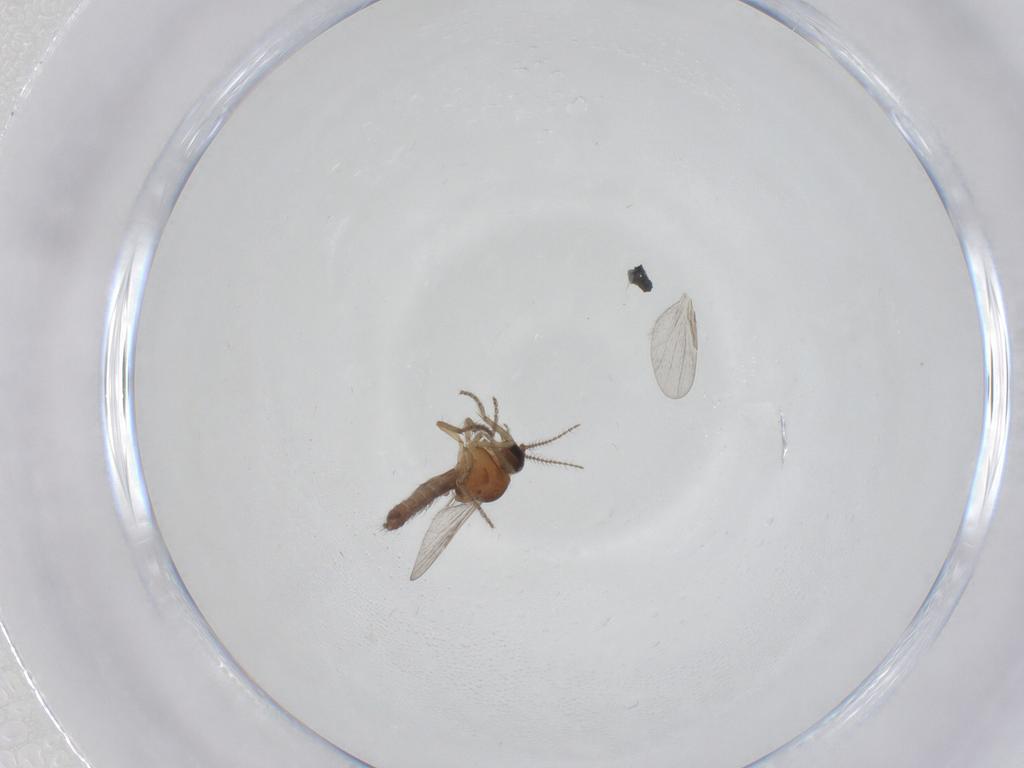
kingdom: Animalia
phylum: Arthropoda
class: Insecta
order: Diptera
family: Ceratopogonidae
